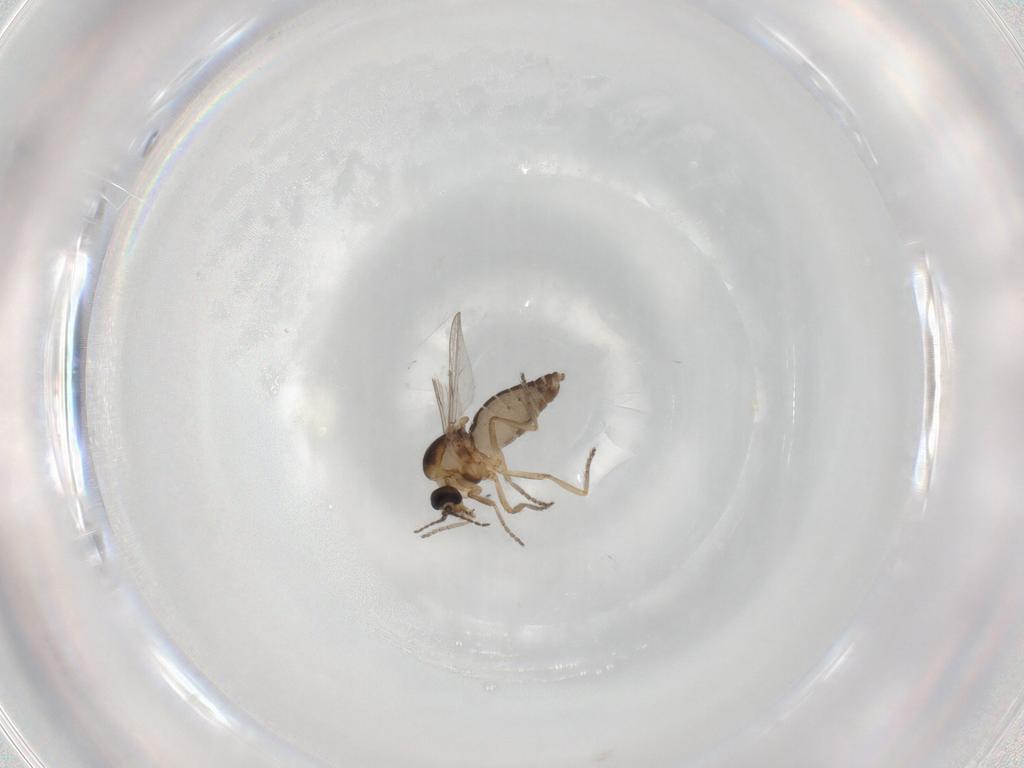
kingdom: Animalia
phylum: Arthropoda
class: Insecta
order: Diptera
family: Ceratopogonidae
